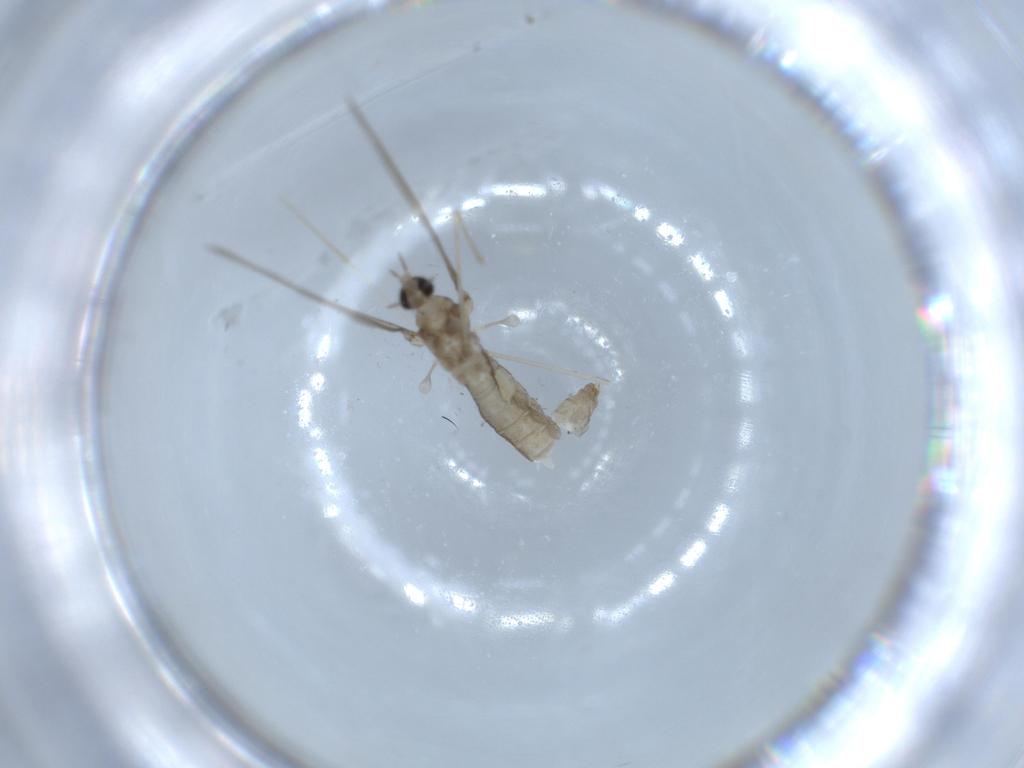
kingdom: Animalia
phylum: Arthropoda
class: Insecta
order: Diptera
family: Cecidomyiidae
